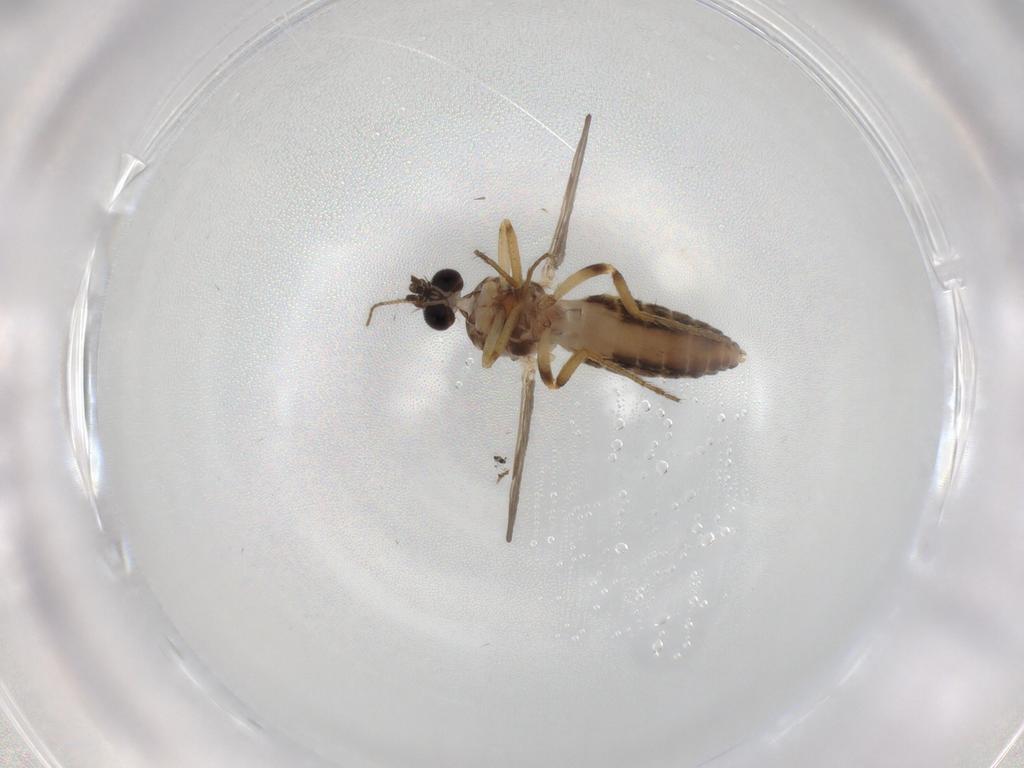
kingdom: Animalia
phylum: Arthropoda
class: Insecta
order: Diptera
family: Ceratopogonidae
